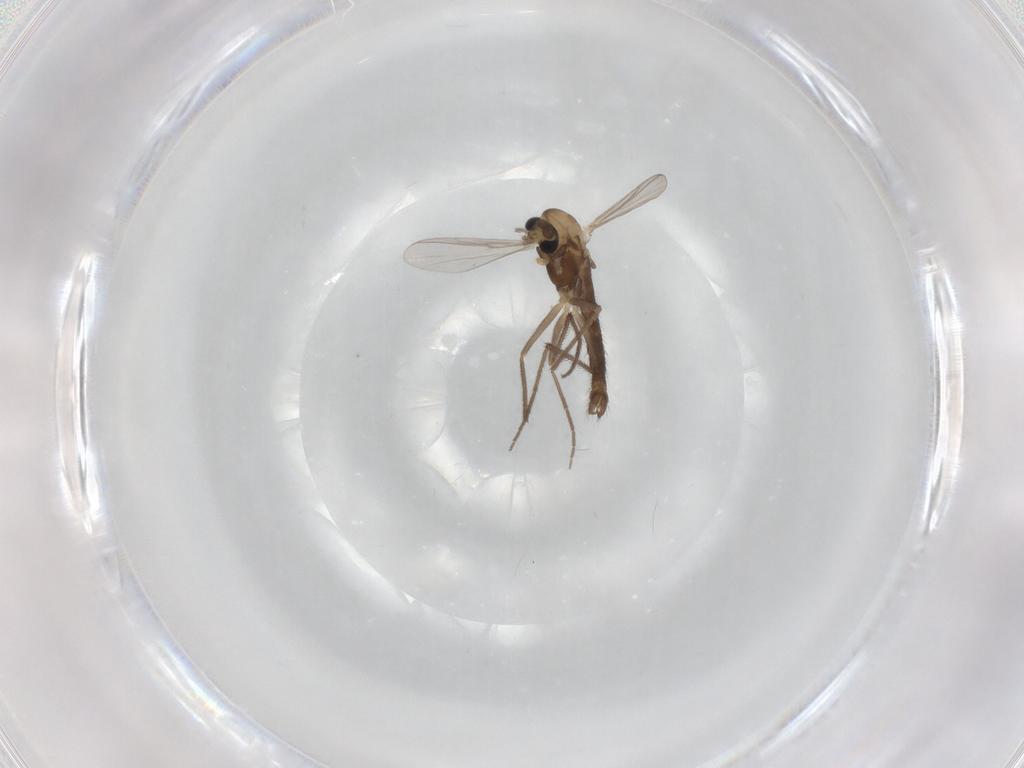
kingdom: Animalia
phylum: Arthropoda
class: Insecta
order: Diptera
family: Chironomidae
